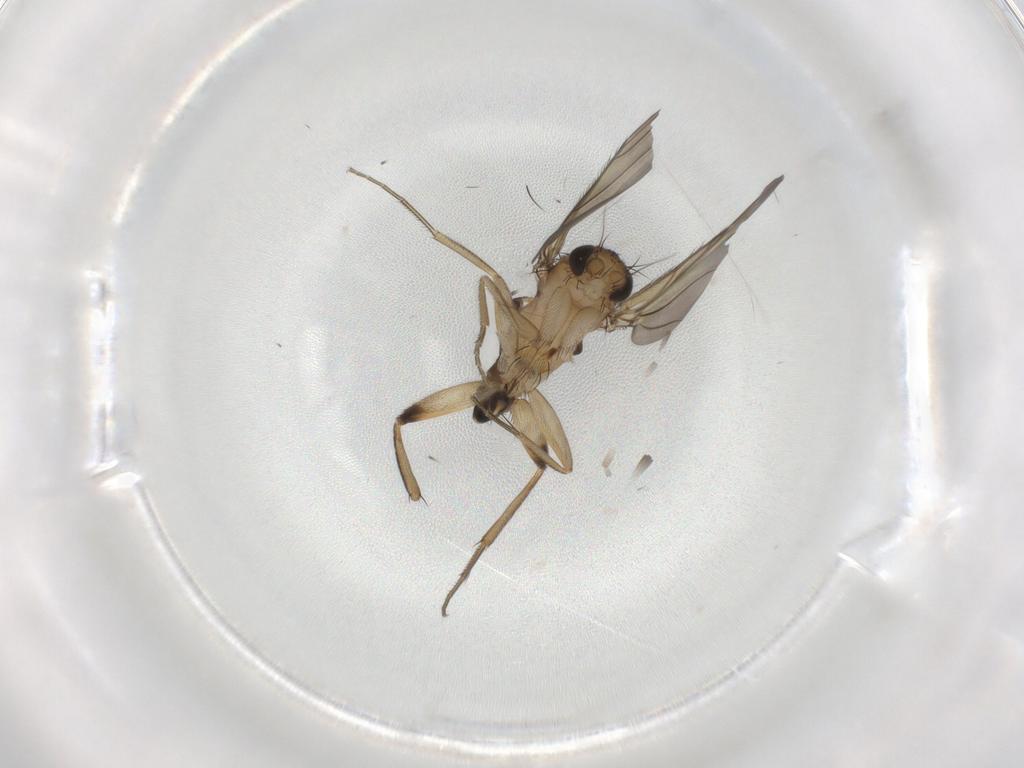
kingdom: Animalia
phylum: Arthropoda
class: Insecta
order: Diptera
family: Phoridae
